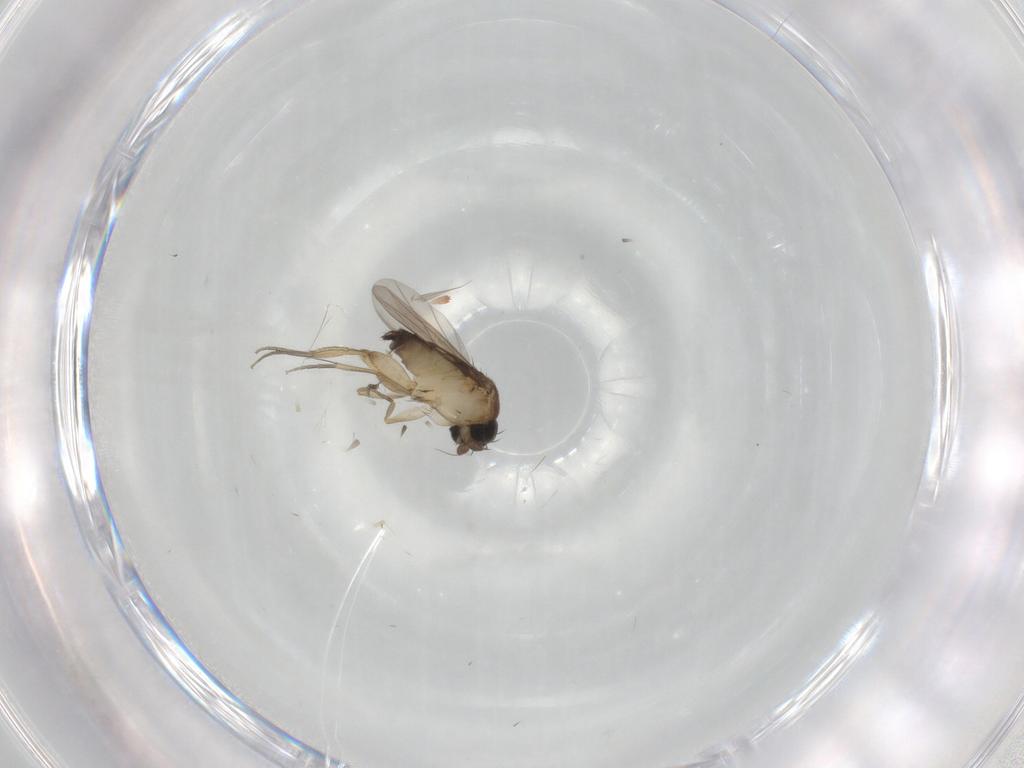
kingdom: Animalia
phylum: Arthropoda
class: Insecta
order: Diptera
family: Phoridae
